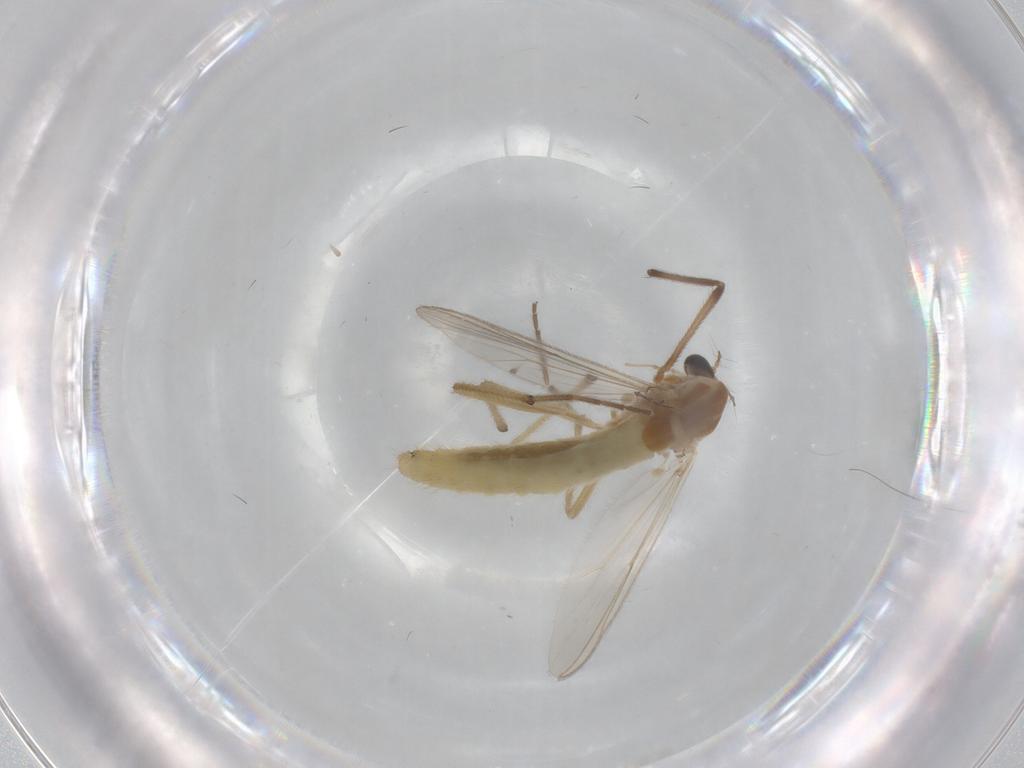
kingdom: Animalia
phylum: Arthropoda
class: Insecta
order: Diptera
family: Chironomidae
